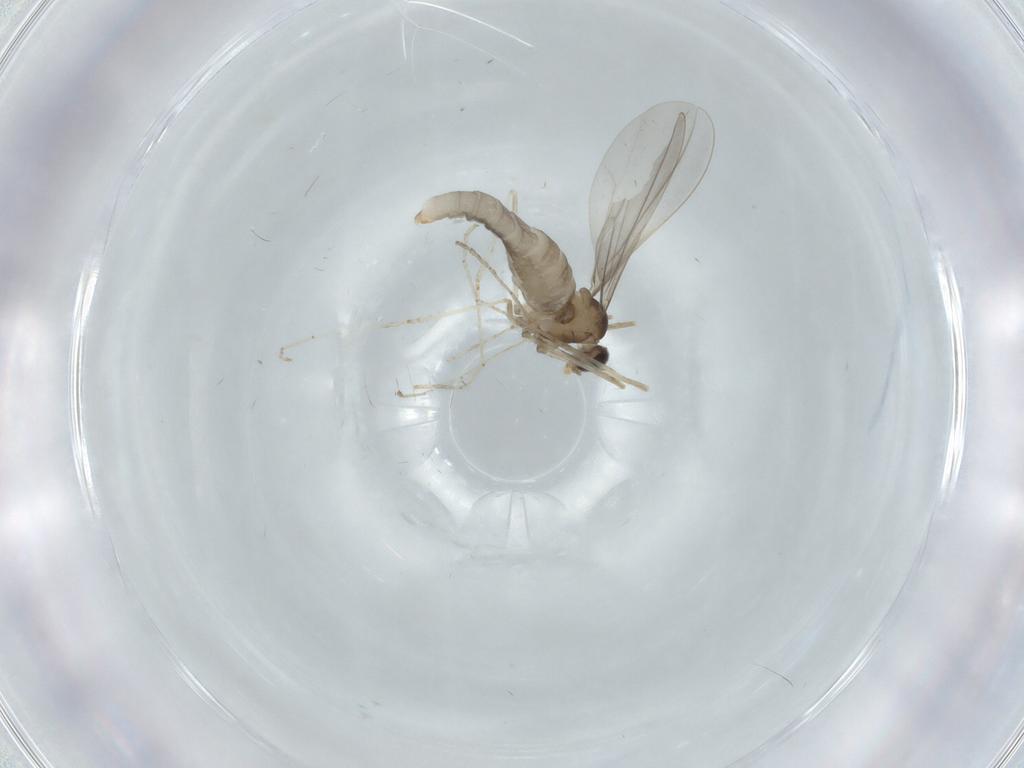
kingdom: Animalia
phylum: Arthropoda
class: Insecta
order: Diptera
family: Cecidomyiidae
